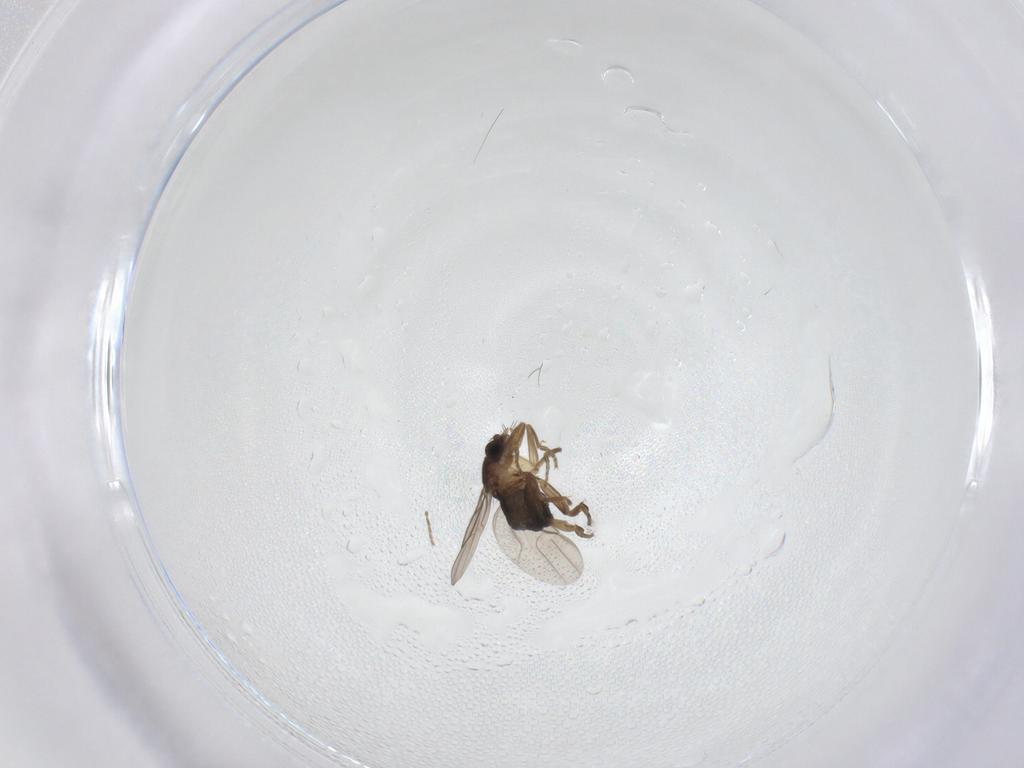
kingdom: Animalia
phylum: Arthropoda
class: Insecta
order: Diptera
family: Phoridae
